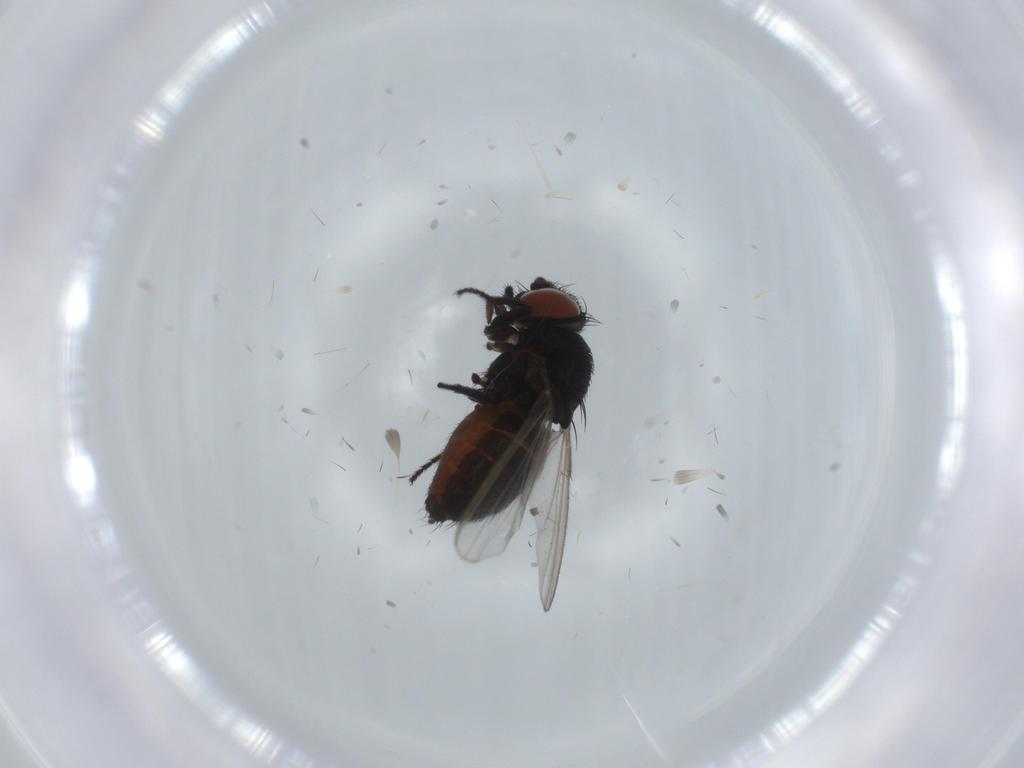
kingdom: Animalia
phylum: Arthropoda
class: Insecta
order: Diptera
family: Milichiidae
